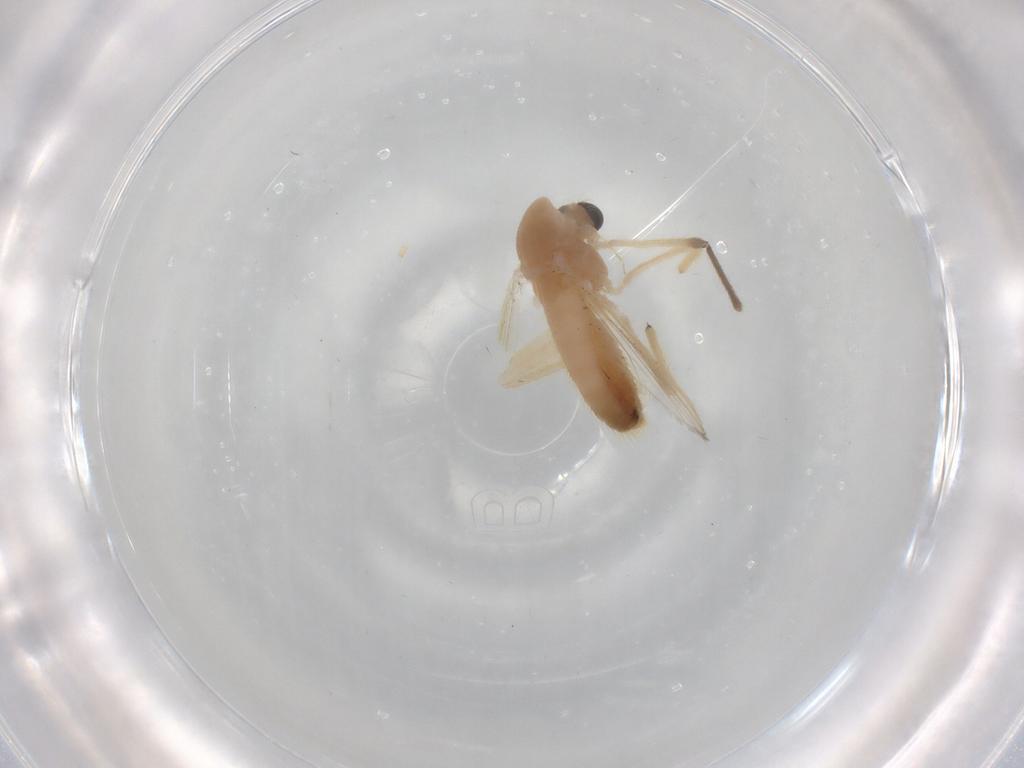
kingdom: Animalia
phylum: Arthropoda
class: Insecta
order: Diptera
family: Chironomidae
